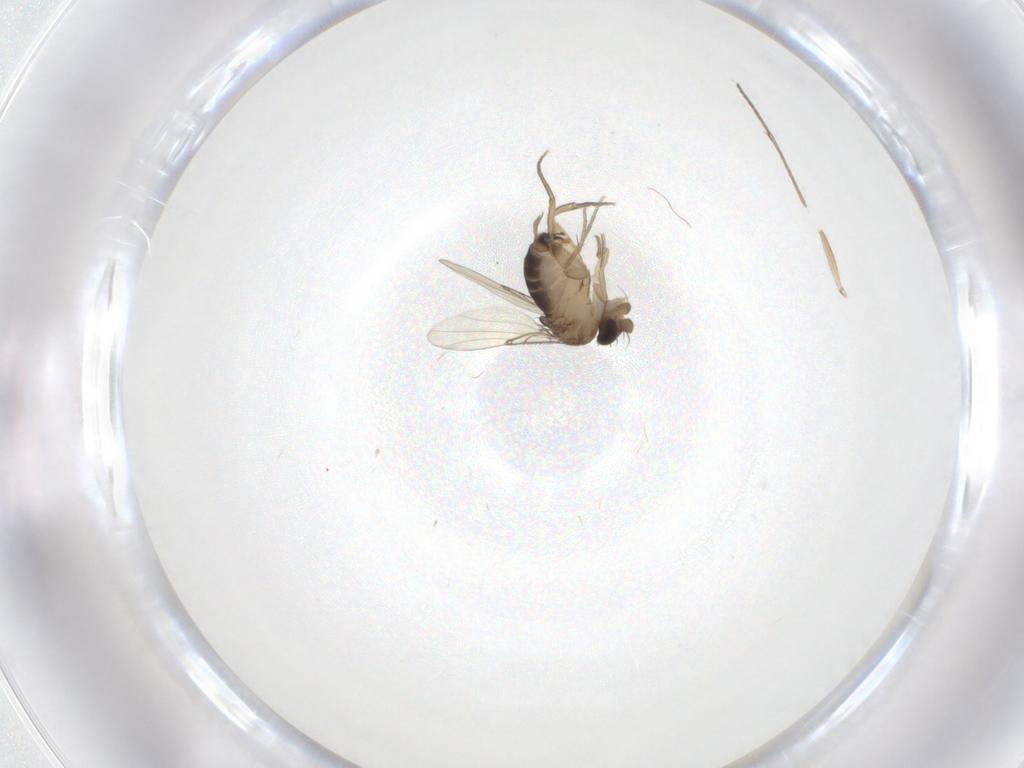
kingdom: Animalia
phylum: Arthropoda
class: Insecta
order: Diptera
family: Sciaridae
